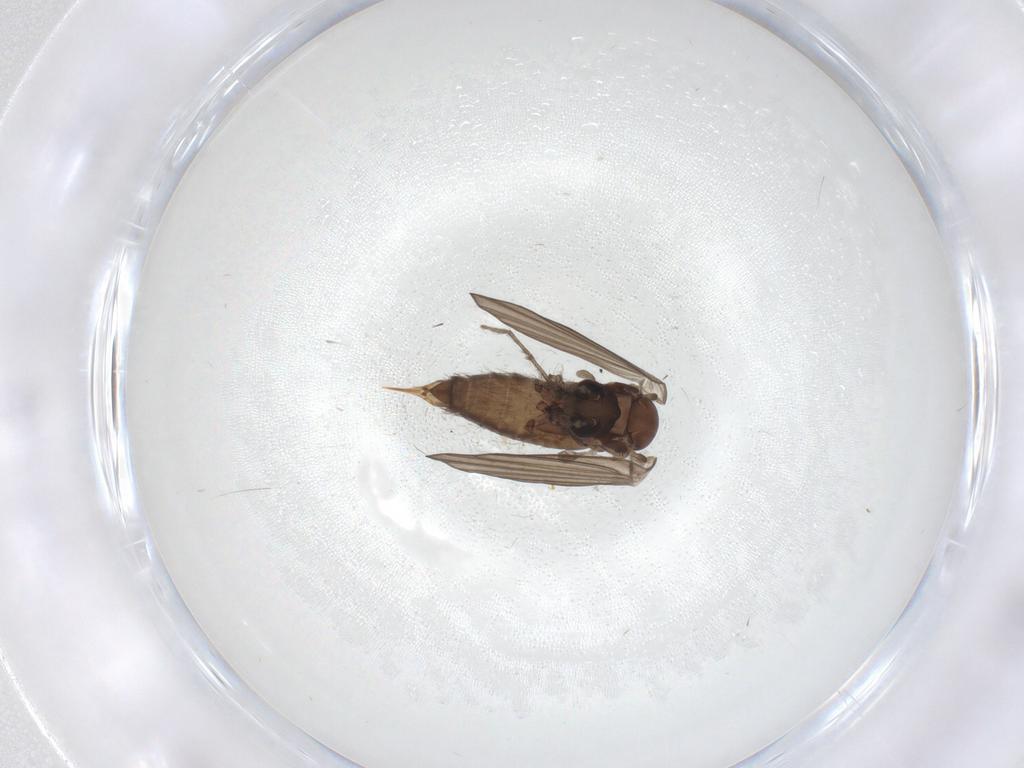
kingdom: Animalia
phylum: Arthropoda
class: Insecta
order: Diptera
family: Psychodidae
